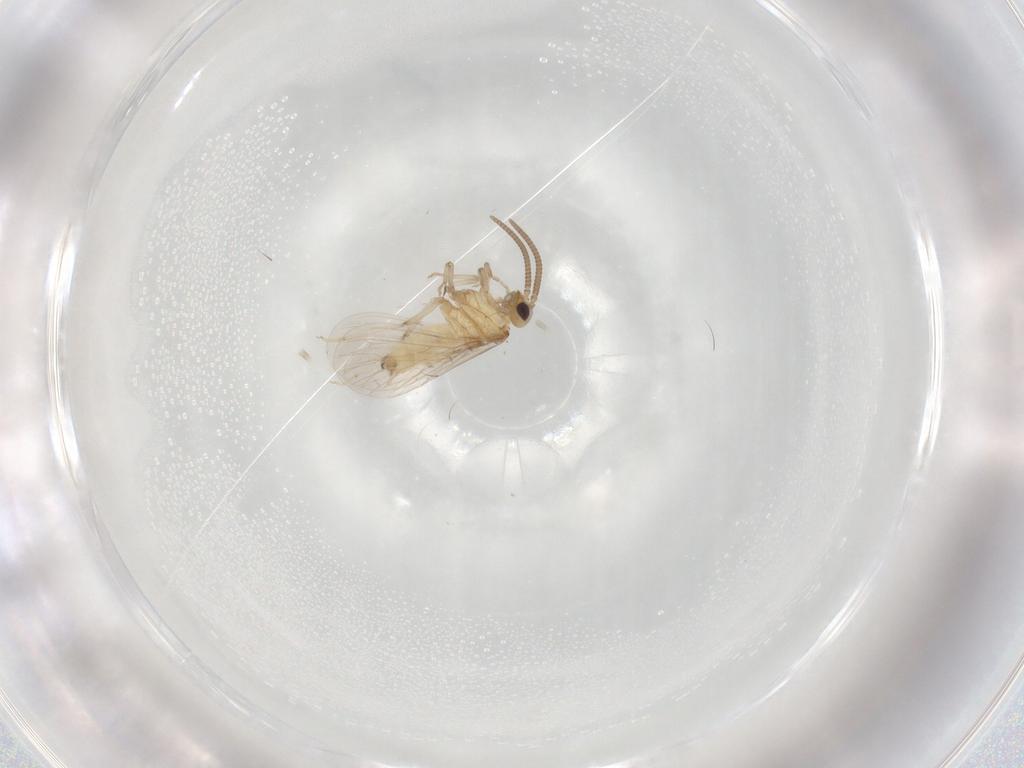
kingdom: Animalia
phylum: Arthropoda
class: Insecta
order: Neuroptera
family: Coniopterygidae
